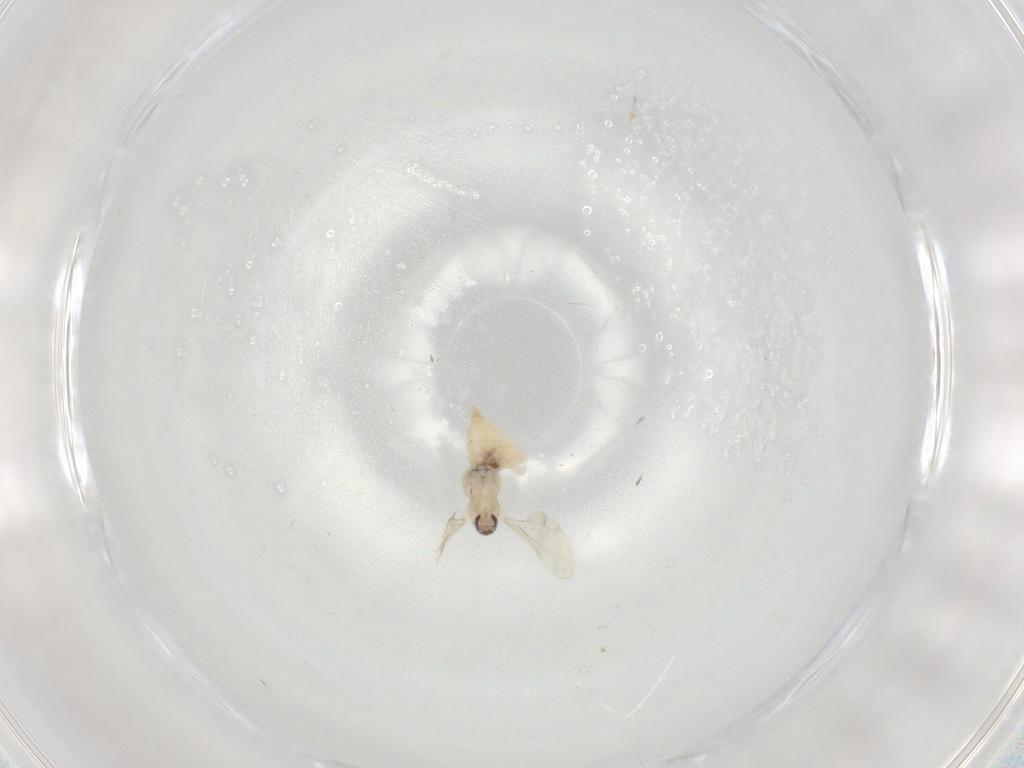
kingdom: Animalia
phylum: Arthropoda
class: Insecta
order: Diptera
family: Cecidomyiidae
